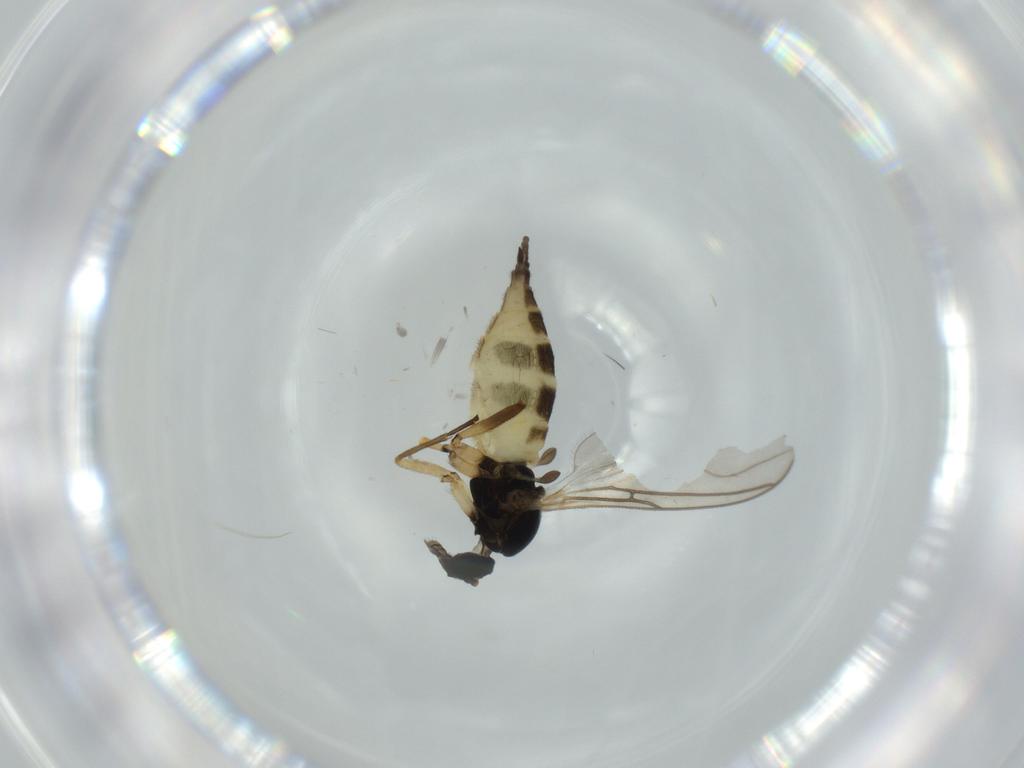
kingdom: Animalia
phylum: Arthropoda
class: Insecta
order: Diptera
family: Sciaridae
